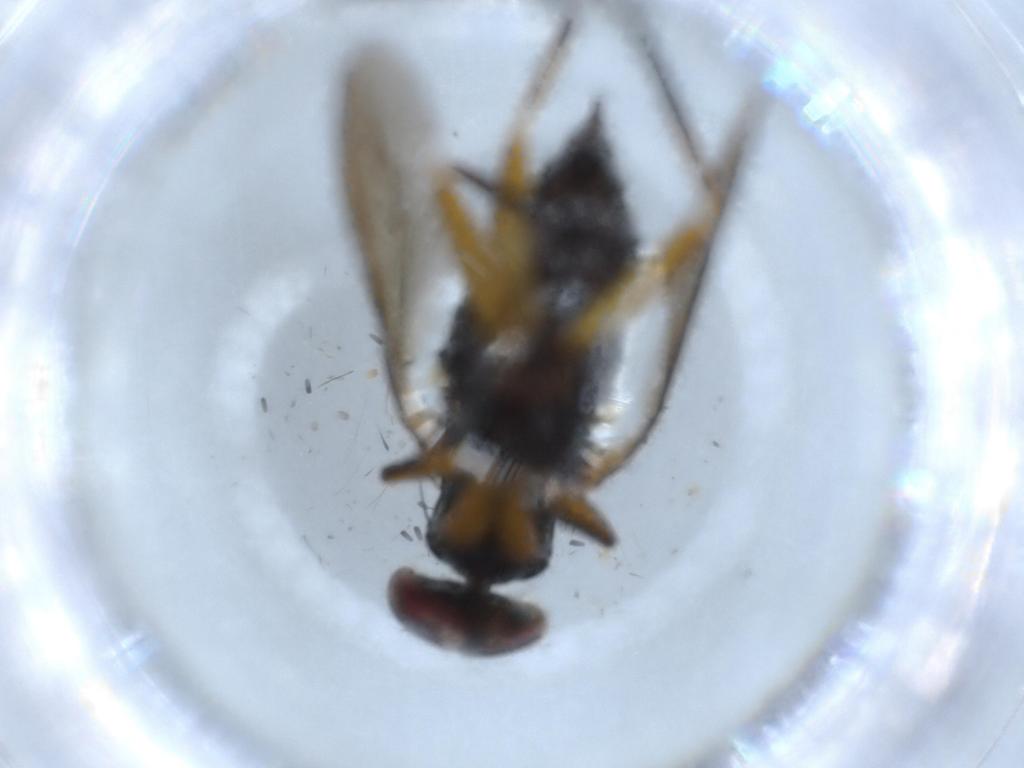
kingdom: Animalia
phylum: Arthropoda
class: Insecta
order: Diptera
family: Dolichopodidae
